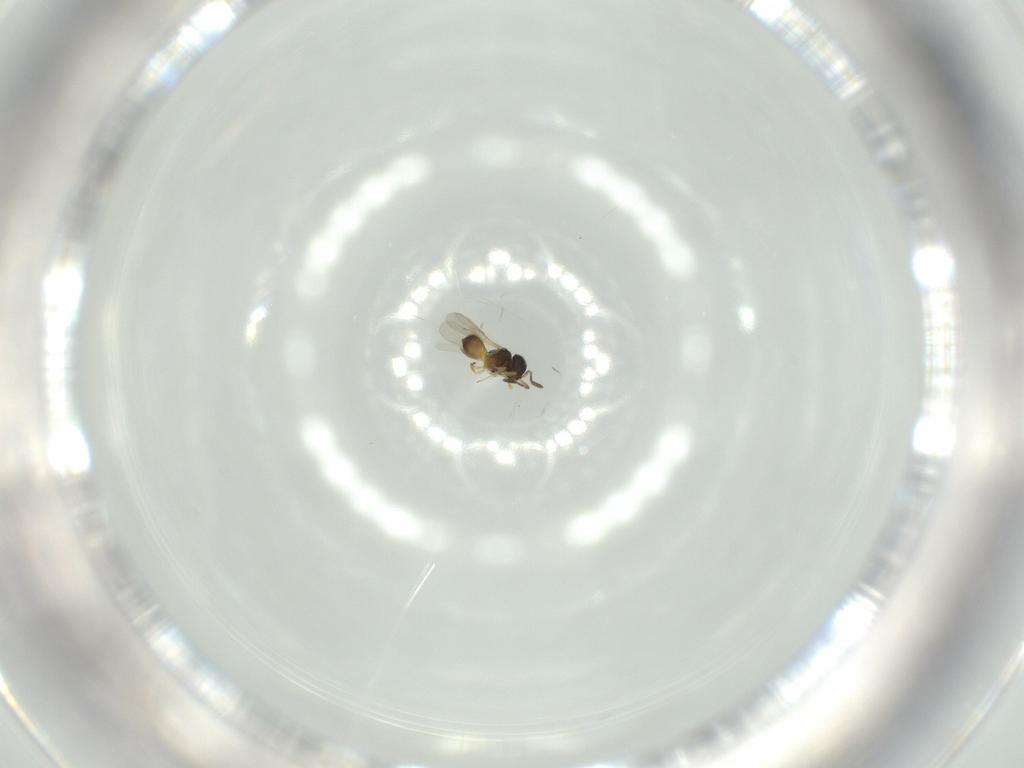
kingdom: Animalia
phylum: Arthropoda
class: Insecta
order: Hymenoptera
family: Scelionidae
